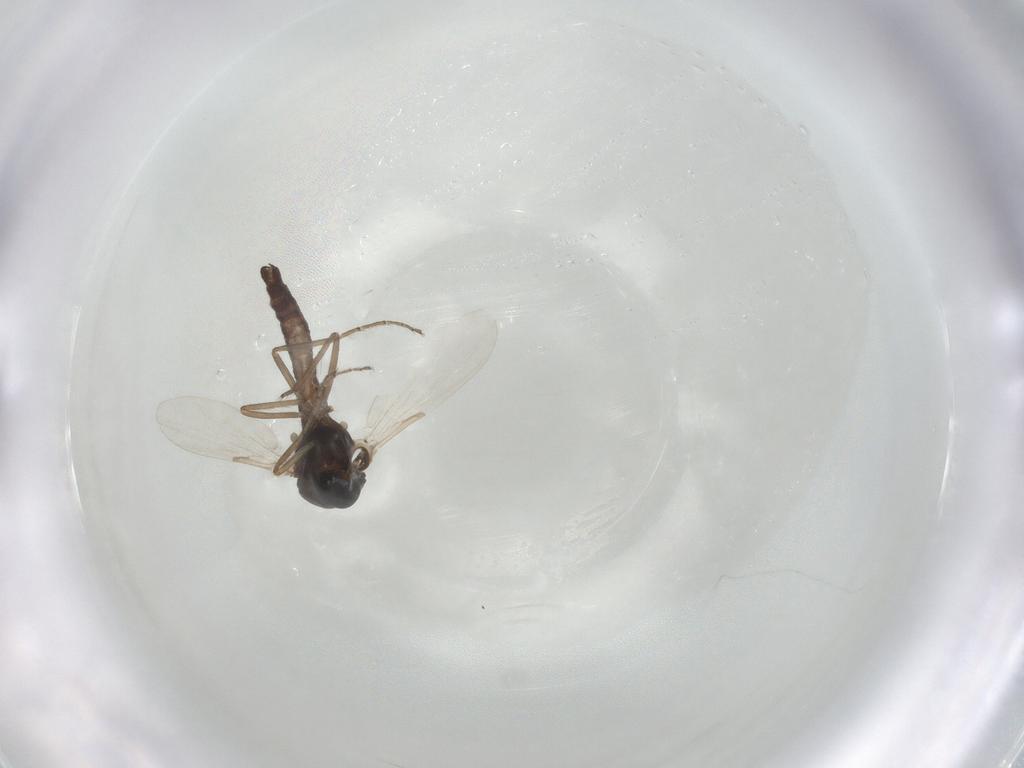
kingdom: Animalia
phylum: Arthropoda
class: Insecta
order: Diptera
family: Ceratopogonidae
